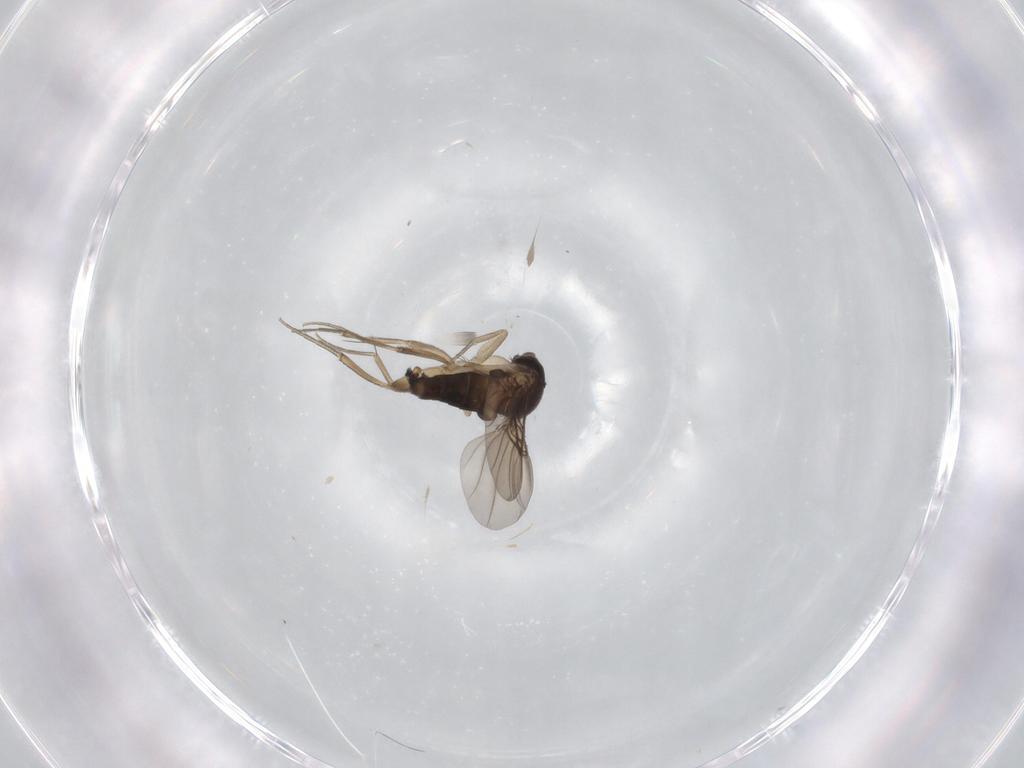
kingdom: Animalia
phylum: Arthropoda
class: Insecta
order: Diptera
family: Phoridae
